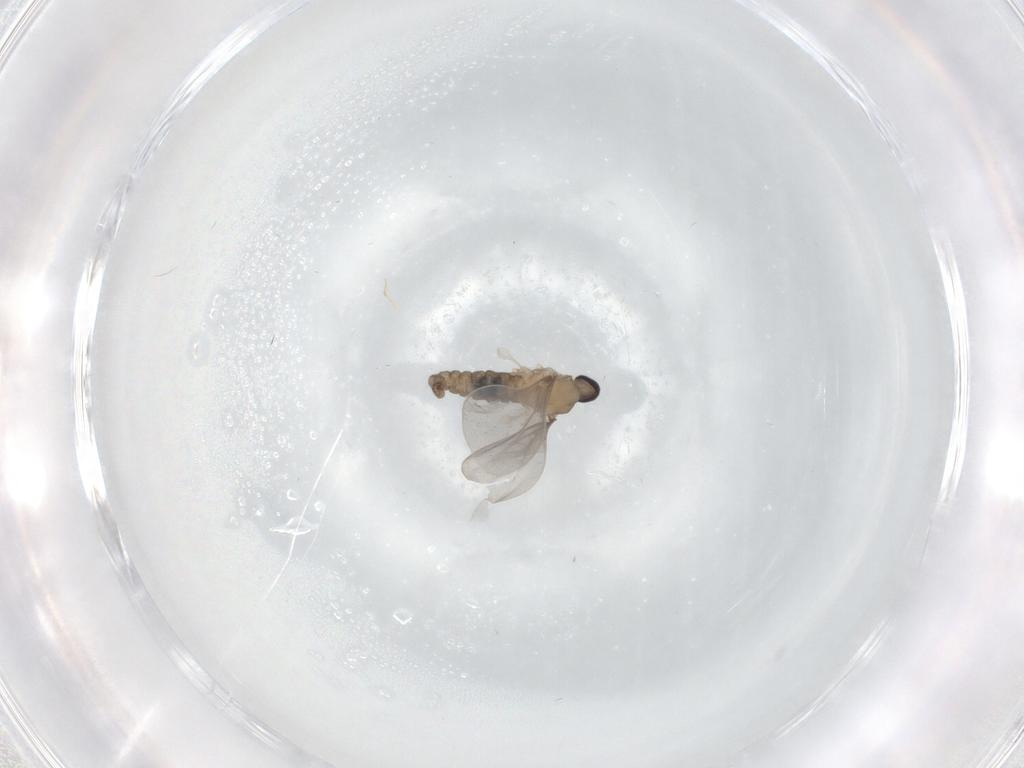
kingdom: Animalia
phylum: Arthropoda
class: Insecta
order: Diptera
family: Cecidomyiidae
